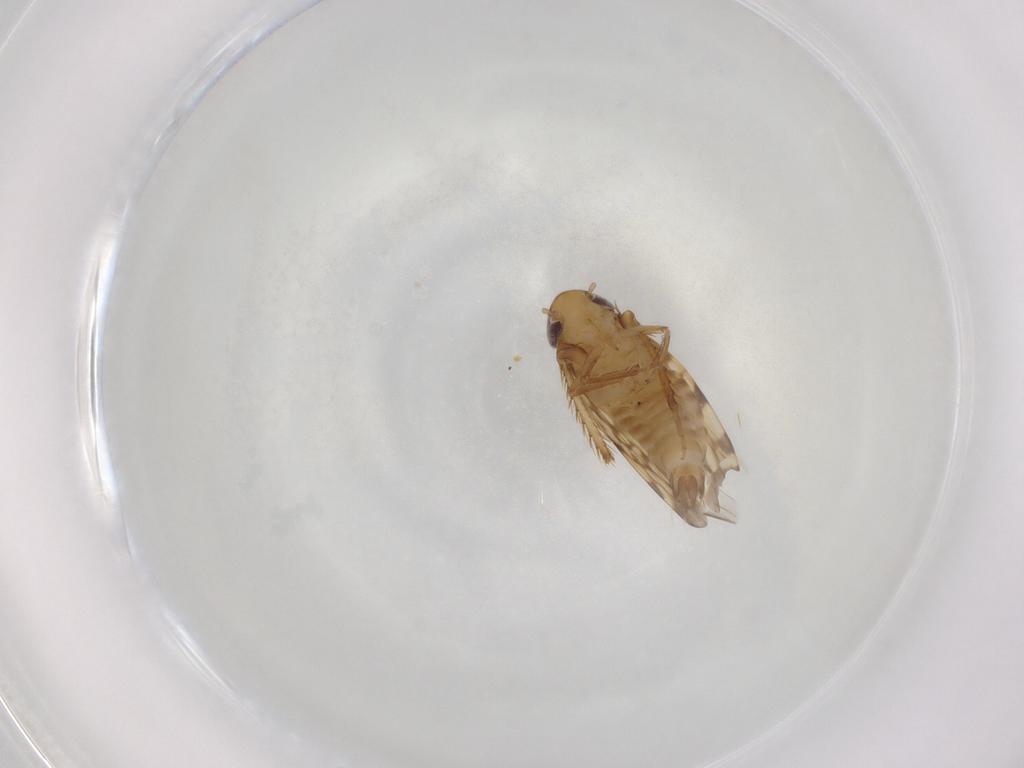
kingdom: Animalia
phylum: Arthropoda
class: Insecta
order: Hemiptera
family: Cicadellidae
